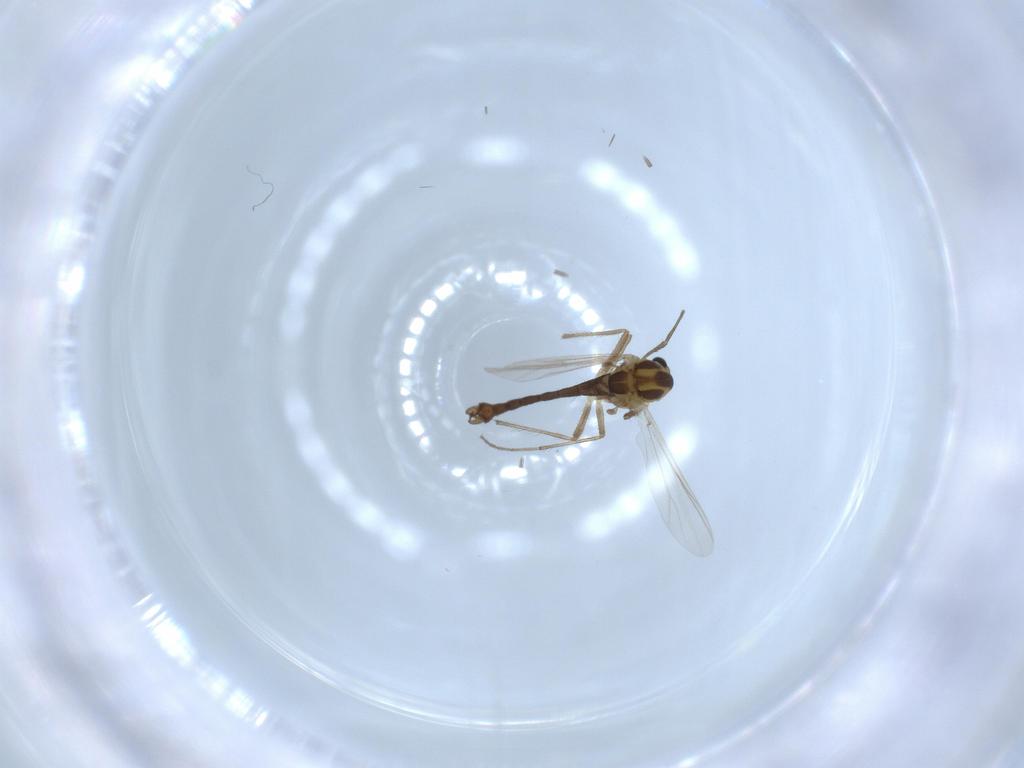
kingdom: Animalia
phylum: Arthropoda
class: Insecta
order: Diptera
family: Chironomidae
